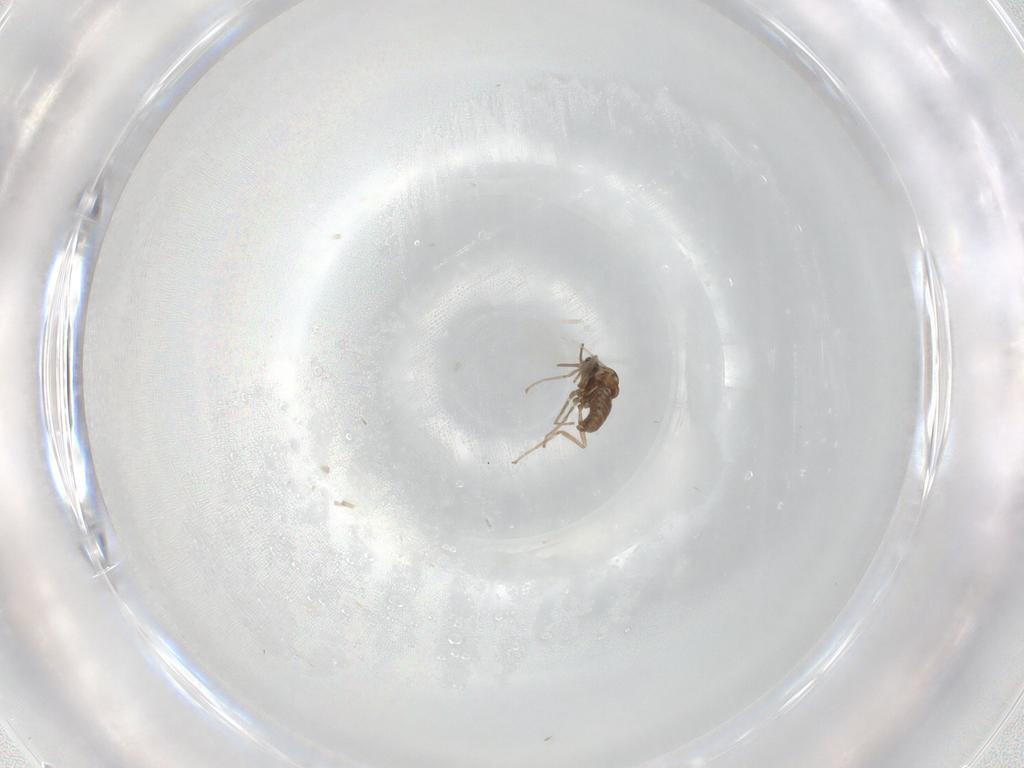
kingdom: Animalia
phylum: Arthropoda
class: Insecta
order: Diptera
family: Cecidomyiidae
